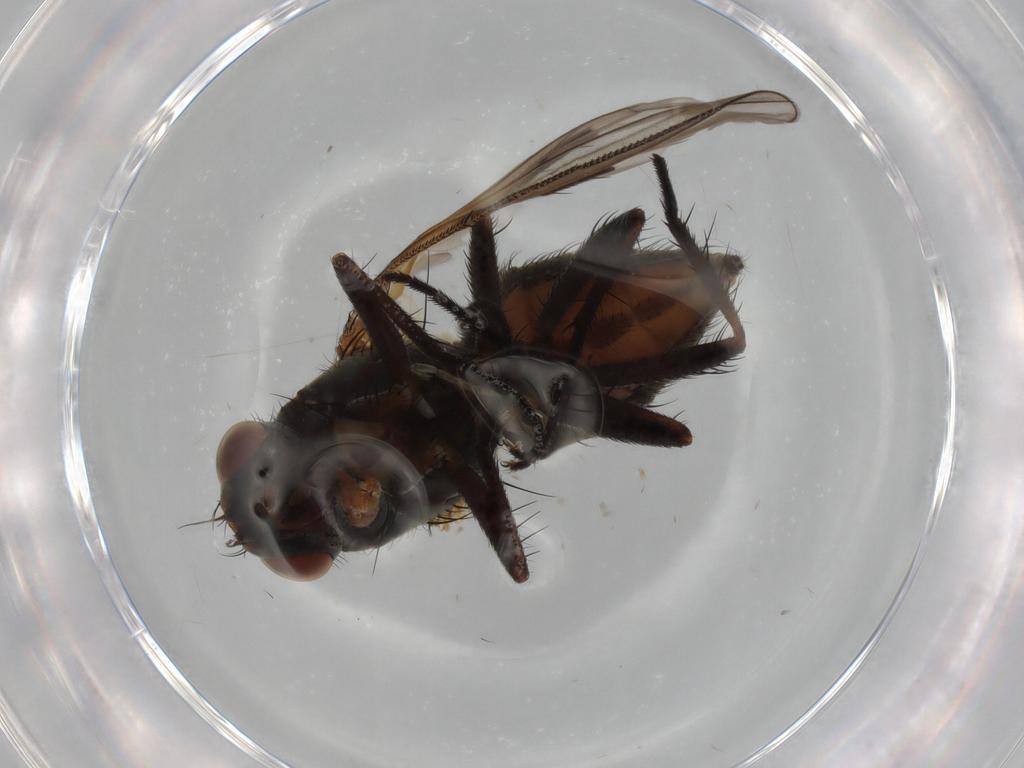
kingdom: Animalia
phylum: Arthropoda
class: Insecta
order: Diptera
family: Anthomyiidae
